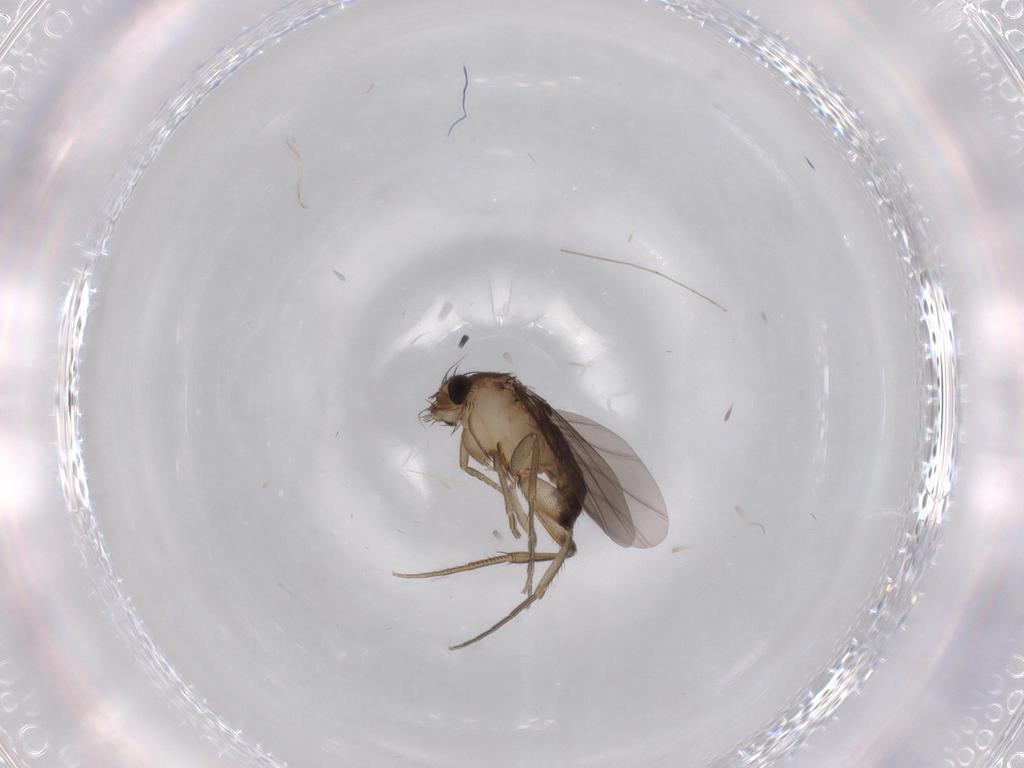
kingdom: Animalia
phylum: Arthropoda
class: Insecta
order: Diptera
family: Phoridae
